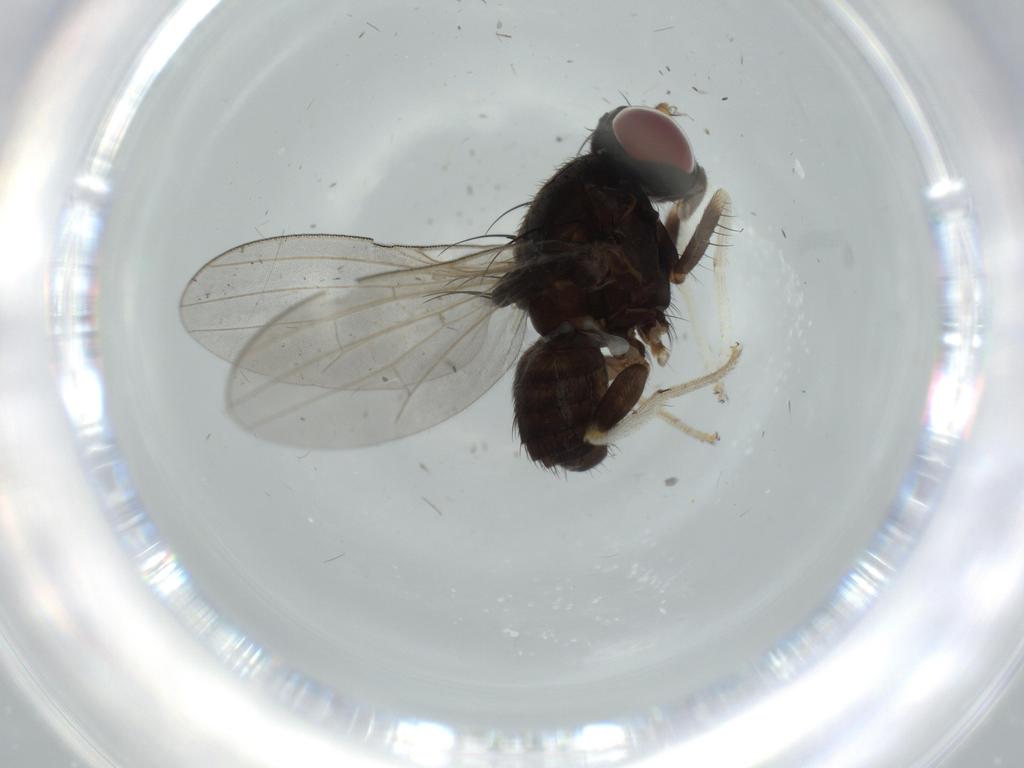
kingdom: Animalia
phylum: Arthropoda
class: Insecta
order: Diptera
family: Lauxaniidae
